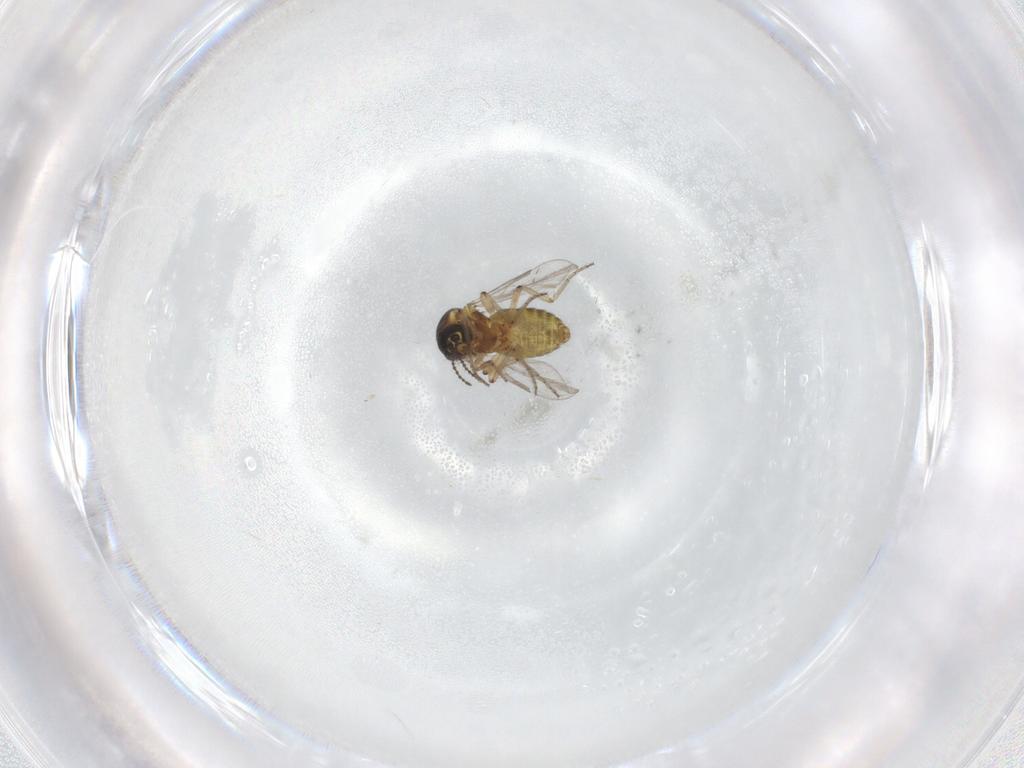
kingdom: Animalia
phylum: Arthropoda
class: Insecta
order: Diptera
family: Ceratopogonidae
